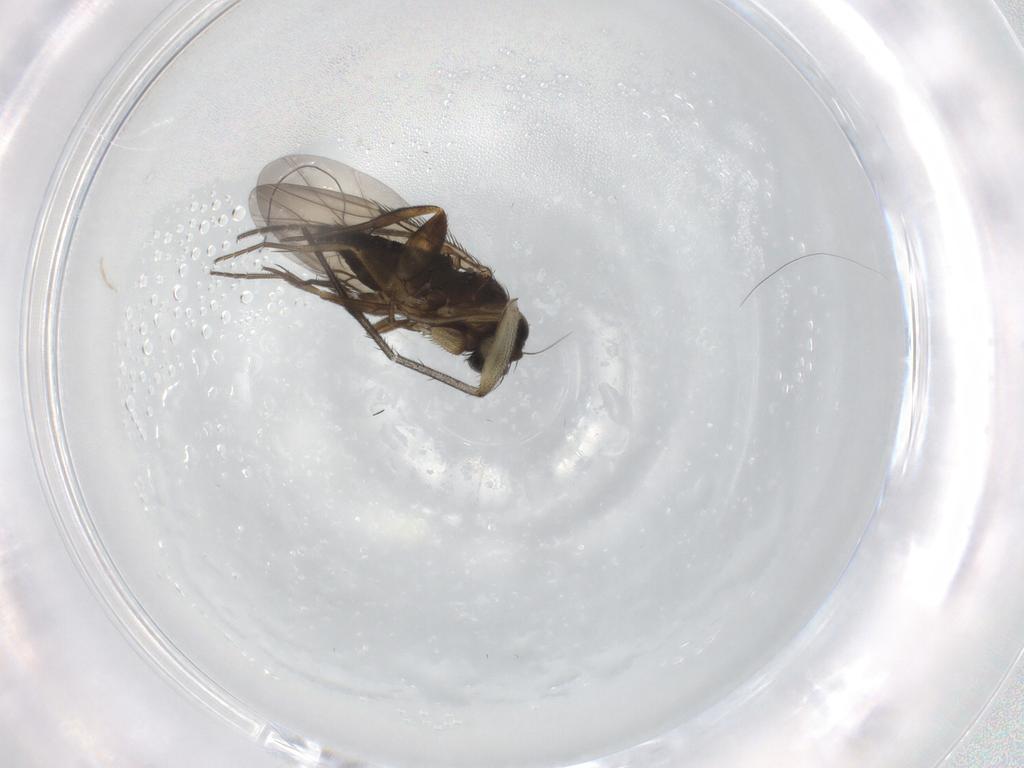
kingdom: Animalia
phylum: Arthropoda
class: Insecta
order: Diptera
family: Phoridae
